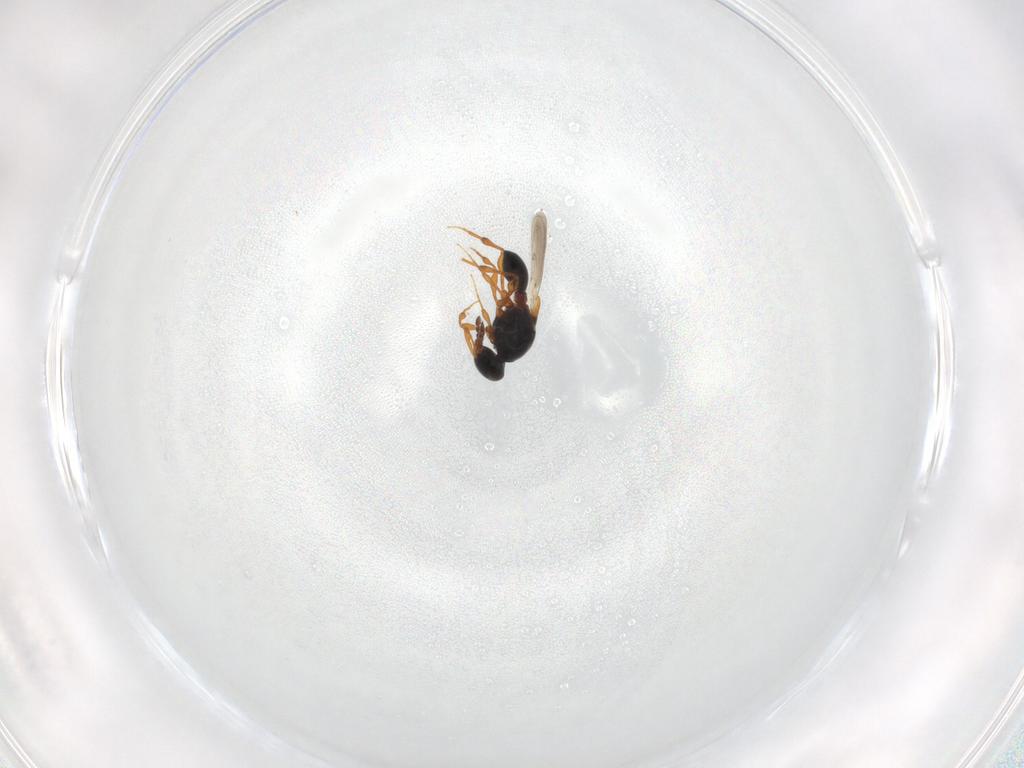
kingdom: Animalia
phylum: Arthropoda
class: Insecta
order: Hymenoptera
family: Platygastridae
